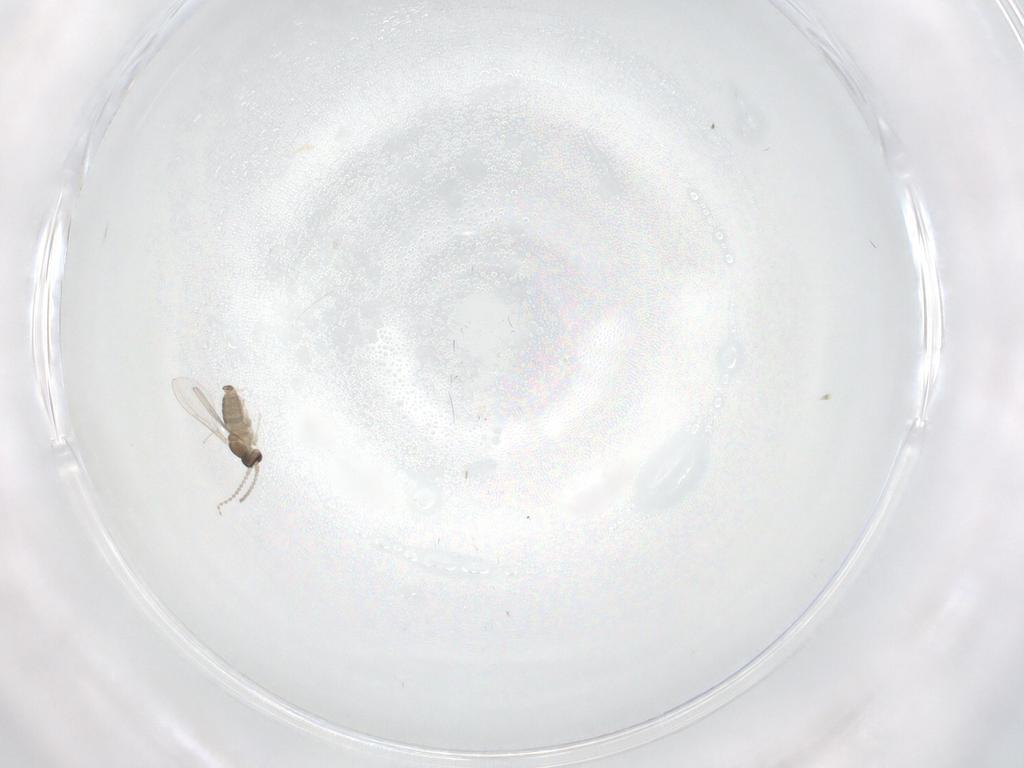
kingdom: Animalia
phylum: Arthropoda
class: Insecta
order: Diptera
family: Cecidomyiidae
